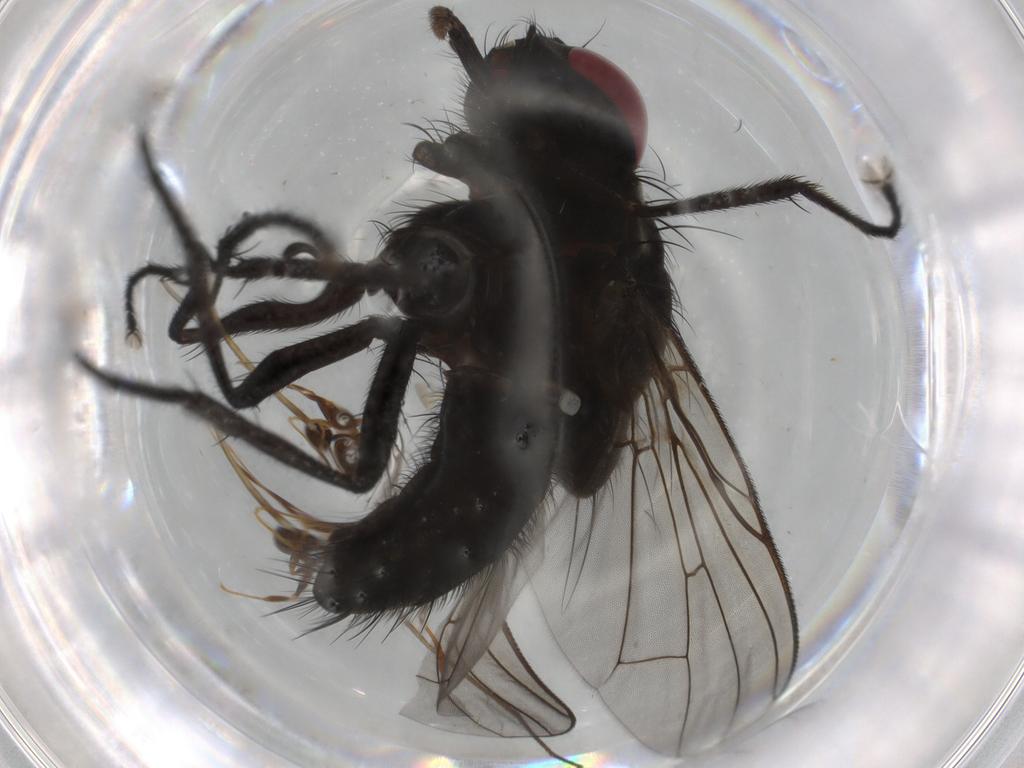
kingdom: Animalia
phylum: Arthropoda
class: Insecta
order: Diptera
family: Muscidae
